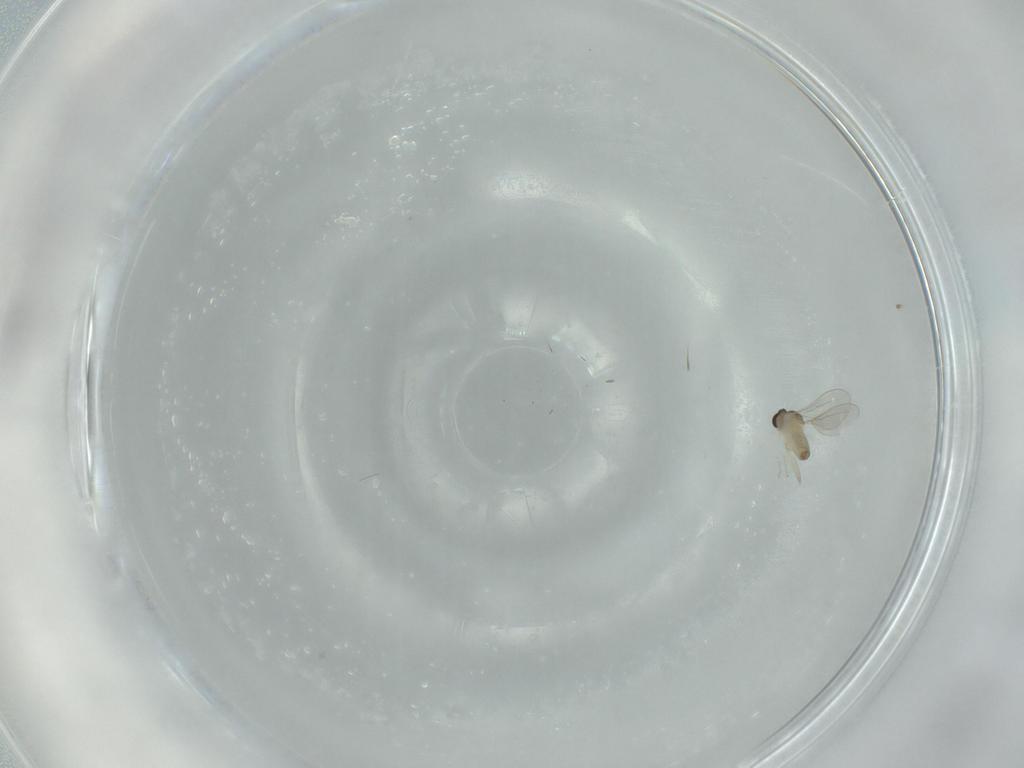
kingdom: Animalia
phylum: Arthropoda
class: Insecta
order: Diptera
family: Cecidomyiidae
